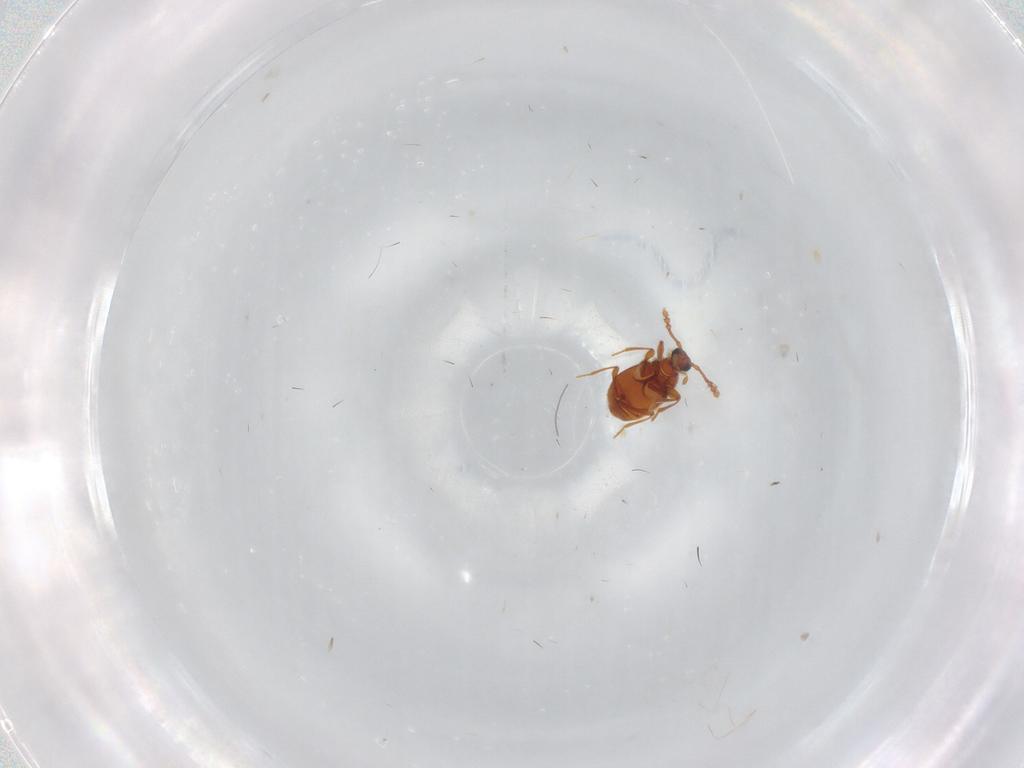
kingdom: Animalia
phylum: Arthropoda
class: Insecta
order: Coleoptera
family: Staphylinidae
